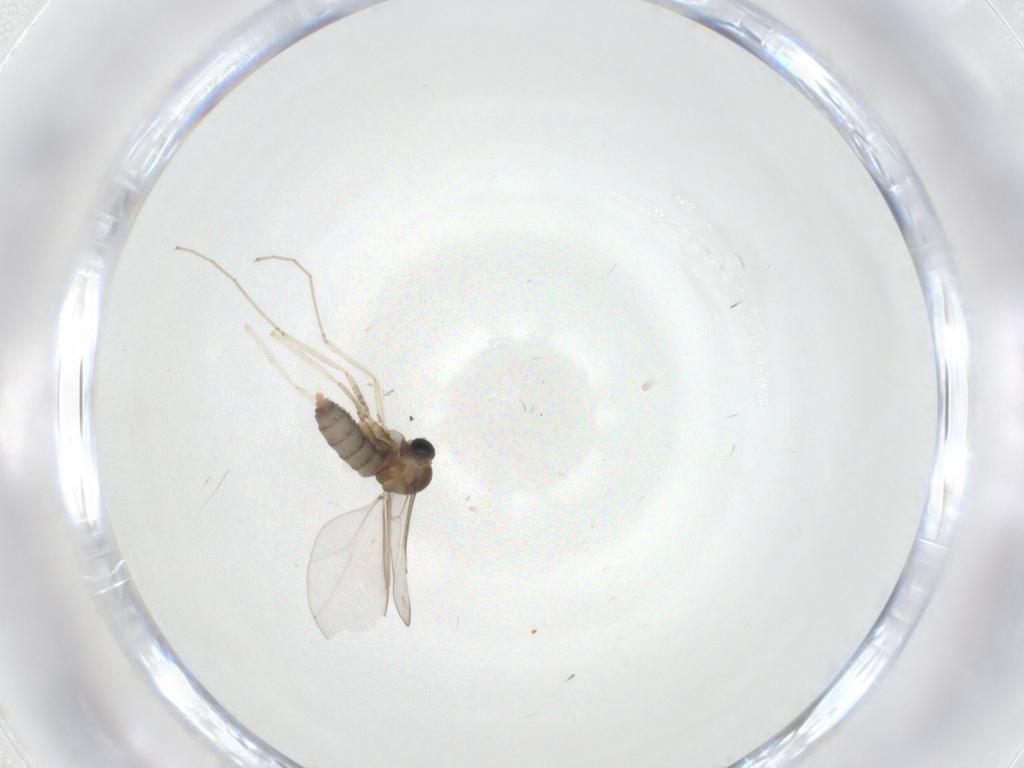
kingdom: Animalia
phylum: Arthropoda
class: Insecta
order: Diptera
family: Cecidomyiidae
